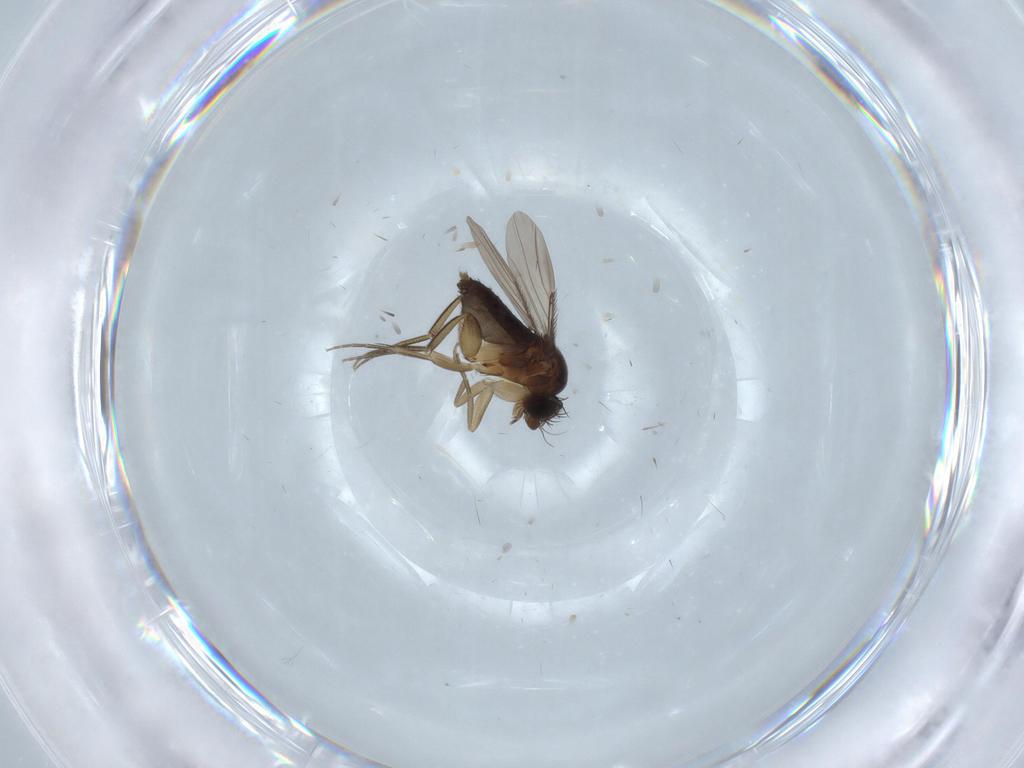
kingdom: Animalia
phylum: Arthropoda
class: Insecta
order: Diptera
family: Phoridae
